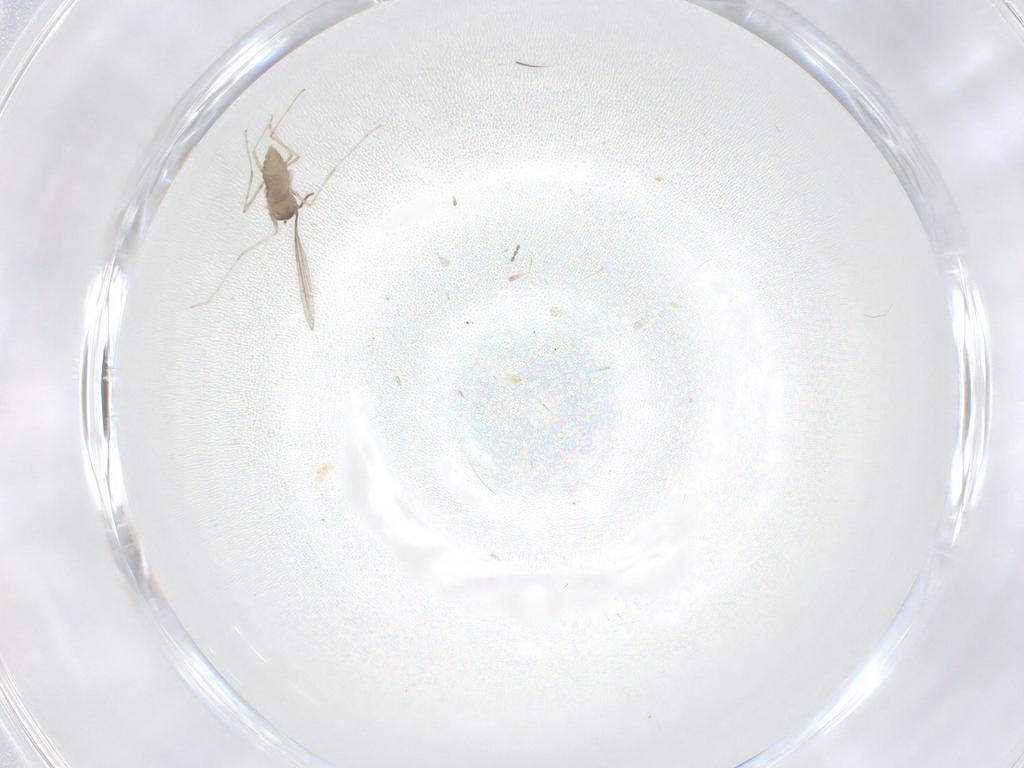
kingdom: Animalia
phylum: Arthropoda
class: Insecta
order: Diptera
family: Cecidomyiidae
